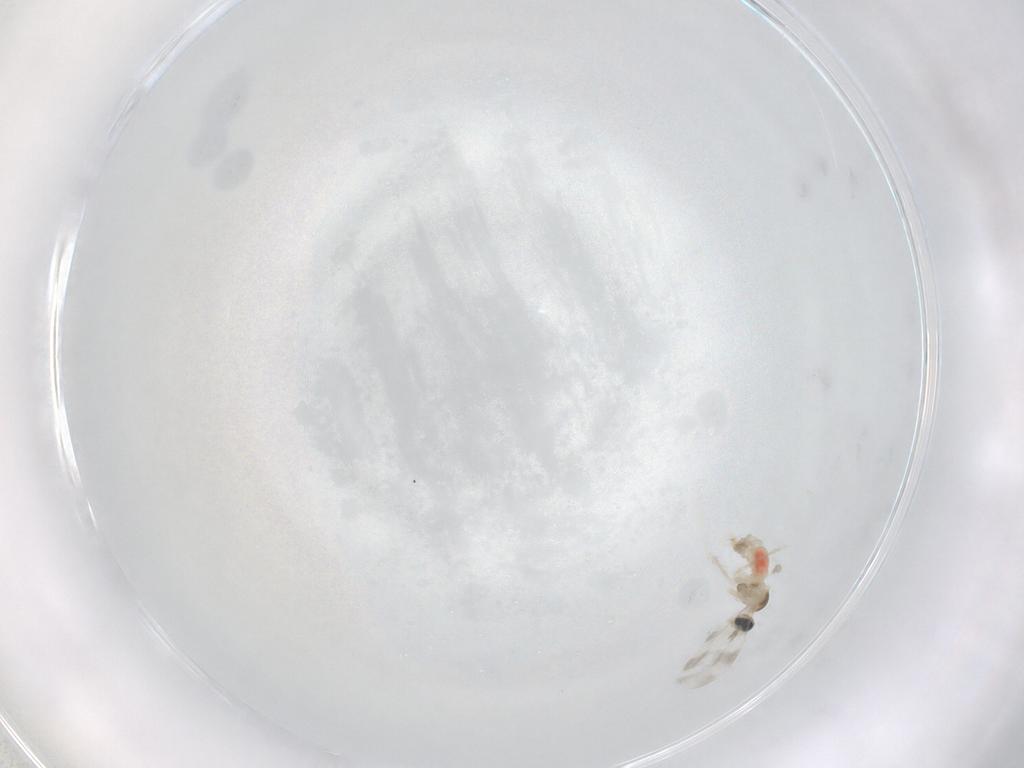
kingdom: Animalia
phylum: Arthropoda
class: Insecta
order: Diptera
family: Cecidomyiidae
